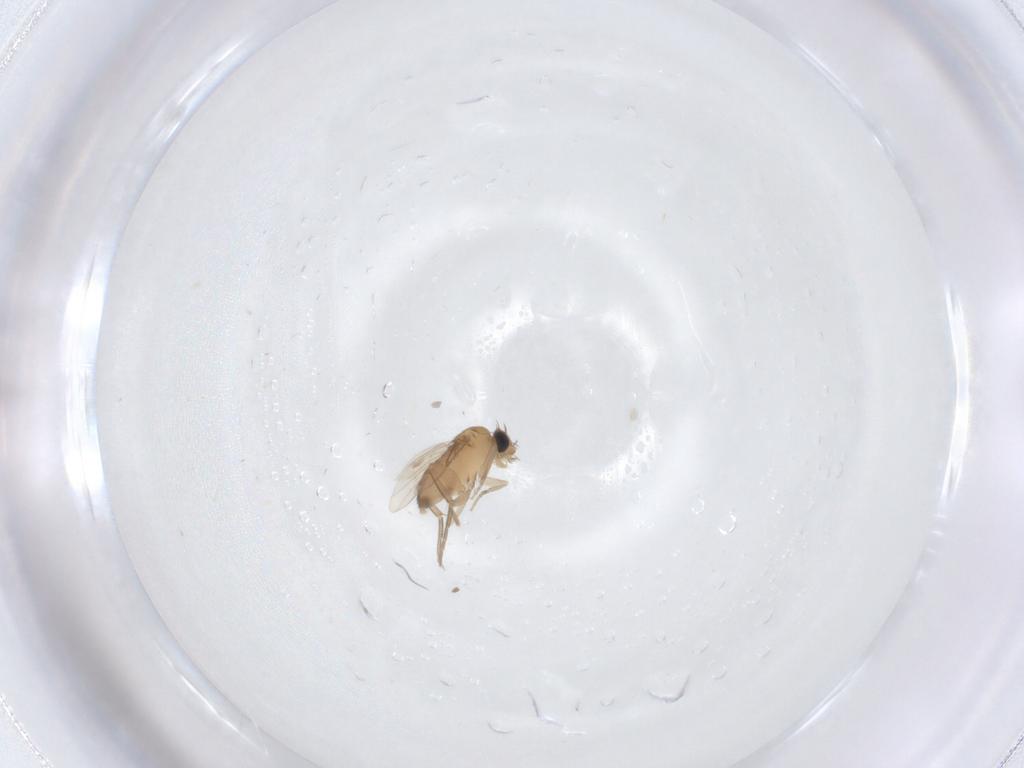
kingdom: Animalia
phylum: Arthropoda
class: Insecta
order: Diptera
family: Phoridae
